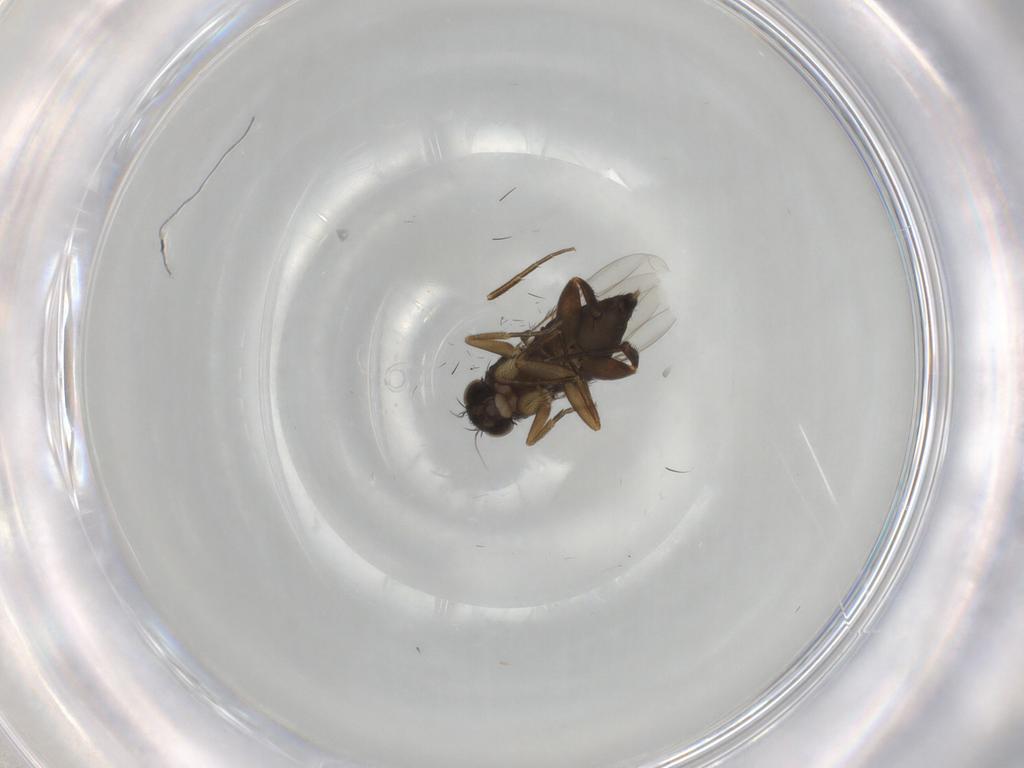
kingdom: Animalia
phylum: Arthropoda
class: Insecta
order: Diptera
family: Phoridae
